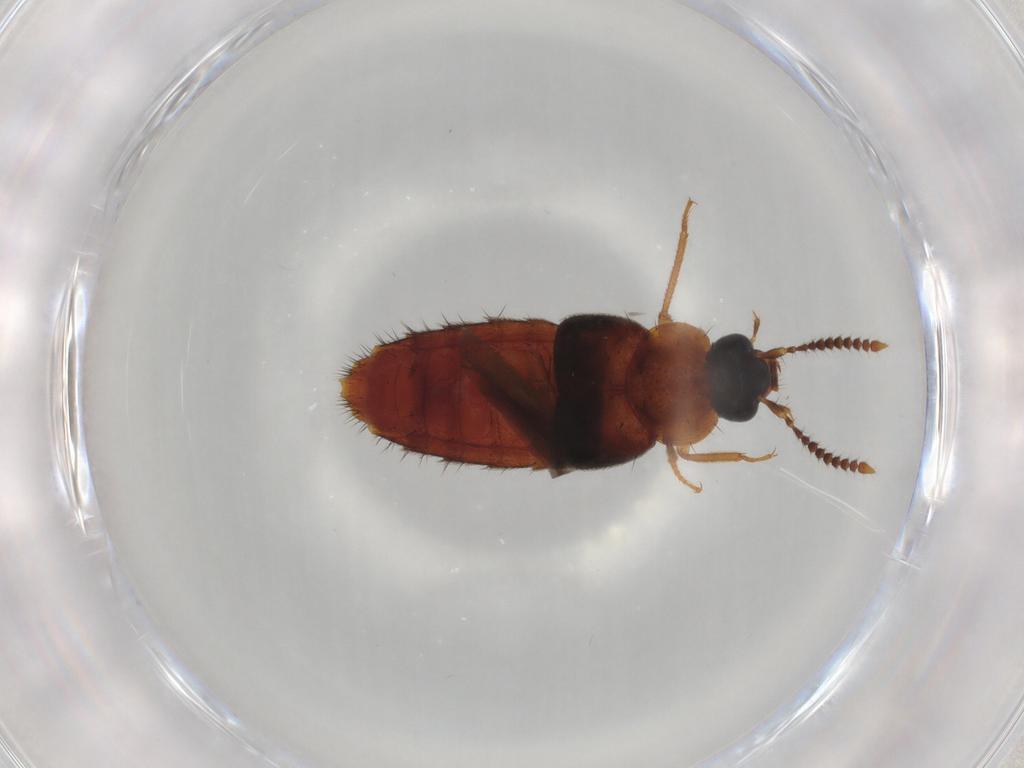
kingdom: Animalia
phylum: Arthropoda
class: Insecta
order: Coleoptera
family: Staphylinidae
